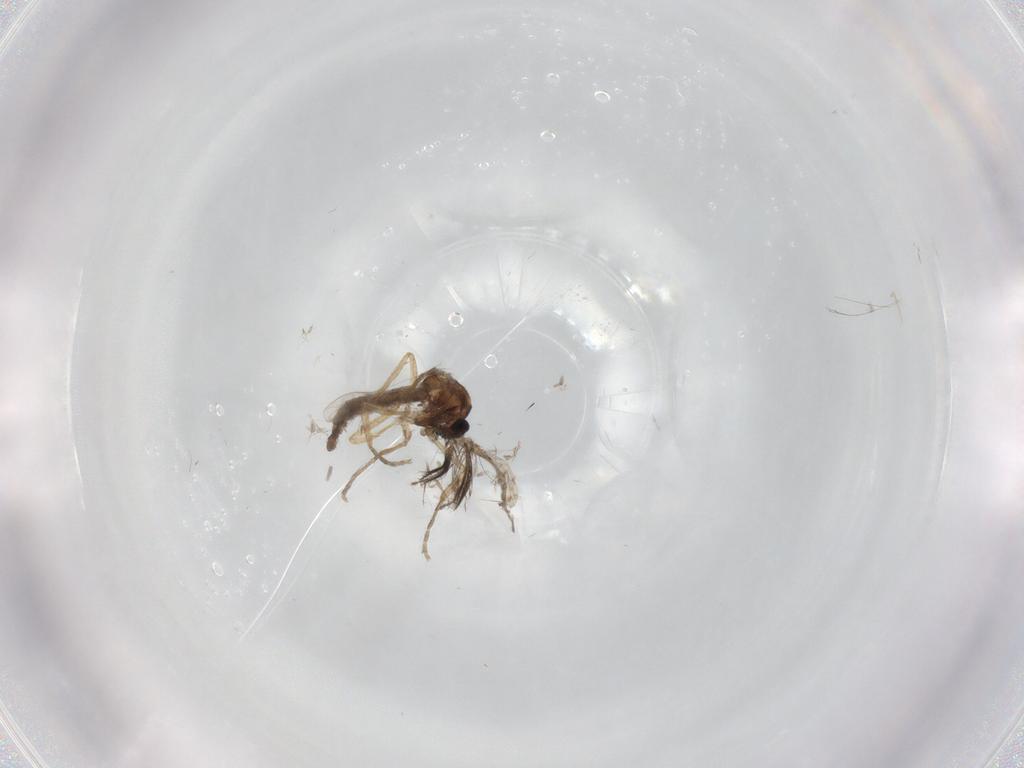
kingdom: Animalia
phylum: Arthropoda
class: Insecta
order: Diptera
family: Ceratopogonidae
